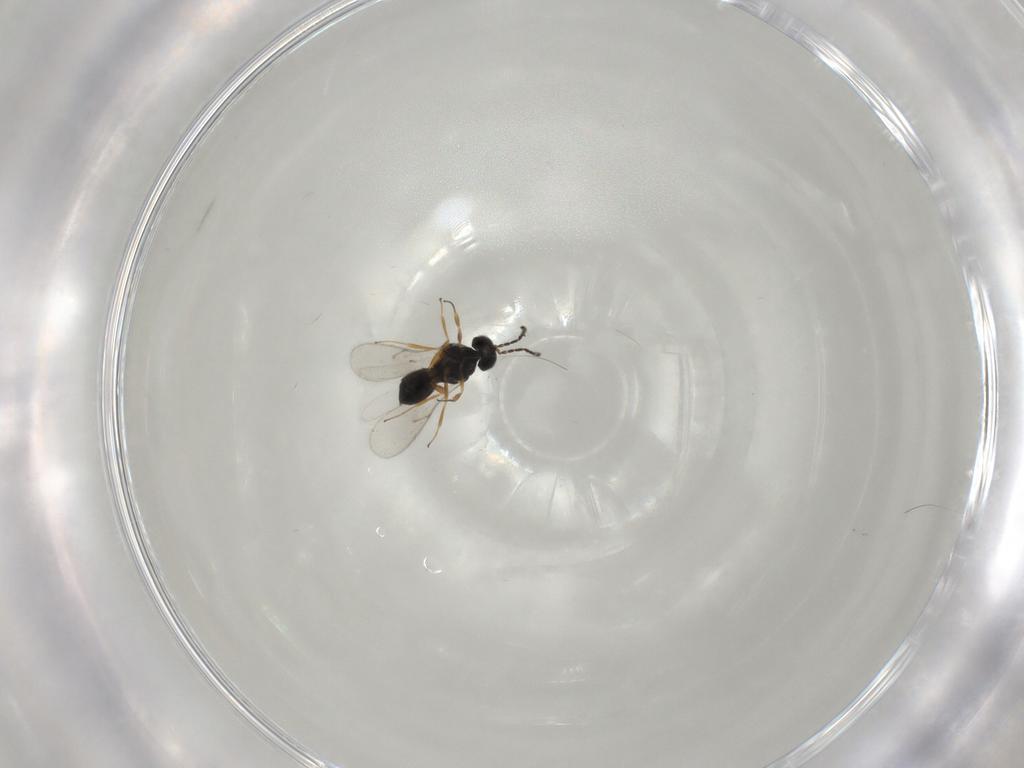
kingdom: Animalia
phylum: Arthropoda
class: Insecta
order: Hymenoptera
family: Scelionidae
